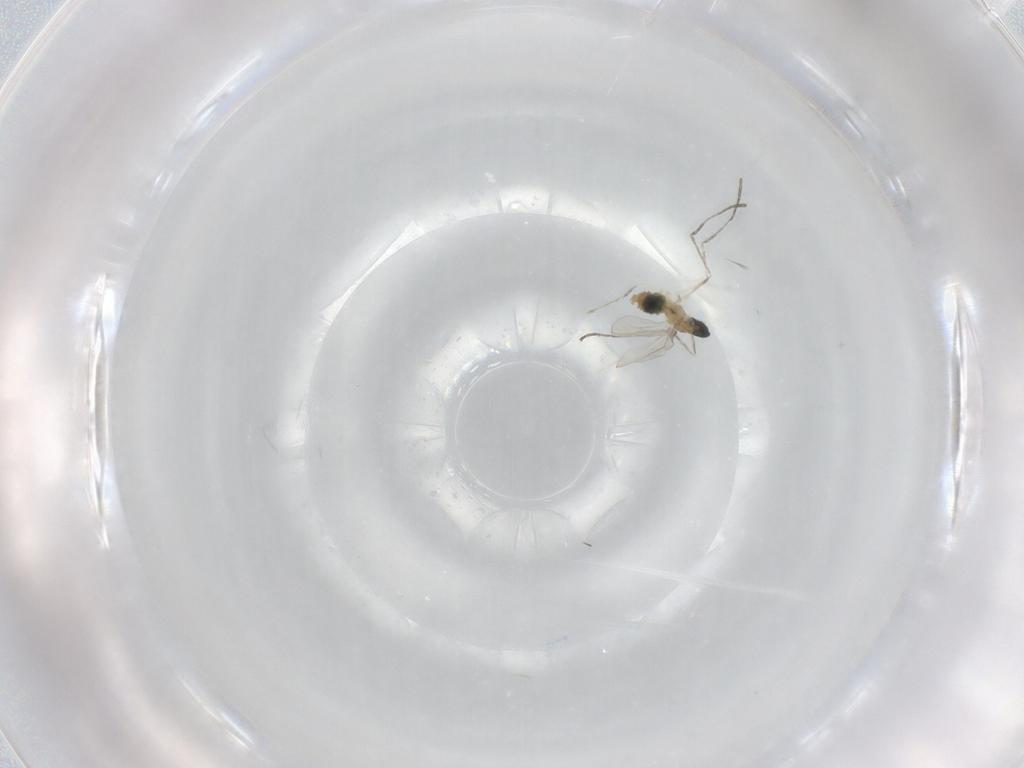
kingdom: Animalia
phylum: Arthropoda
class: Insecta
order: Diptera
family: Cecidomyiidae
